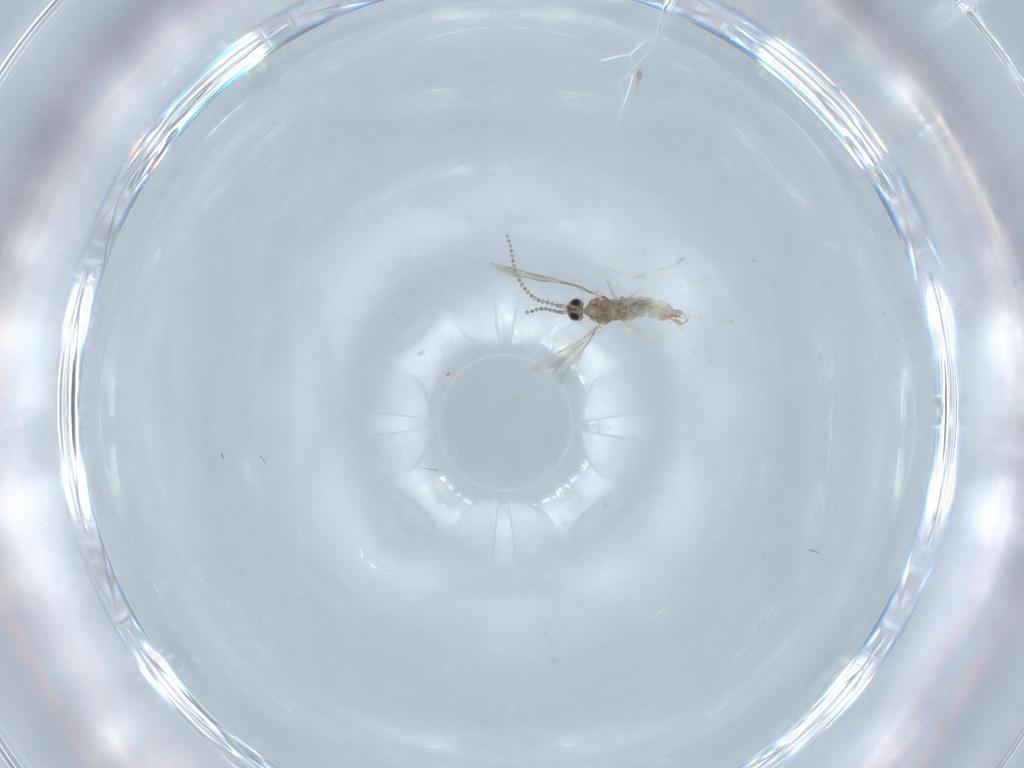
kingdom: Animalia
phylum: Arthropoda
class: Insecta
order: Diptera
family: Cecidomyiidae
